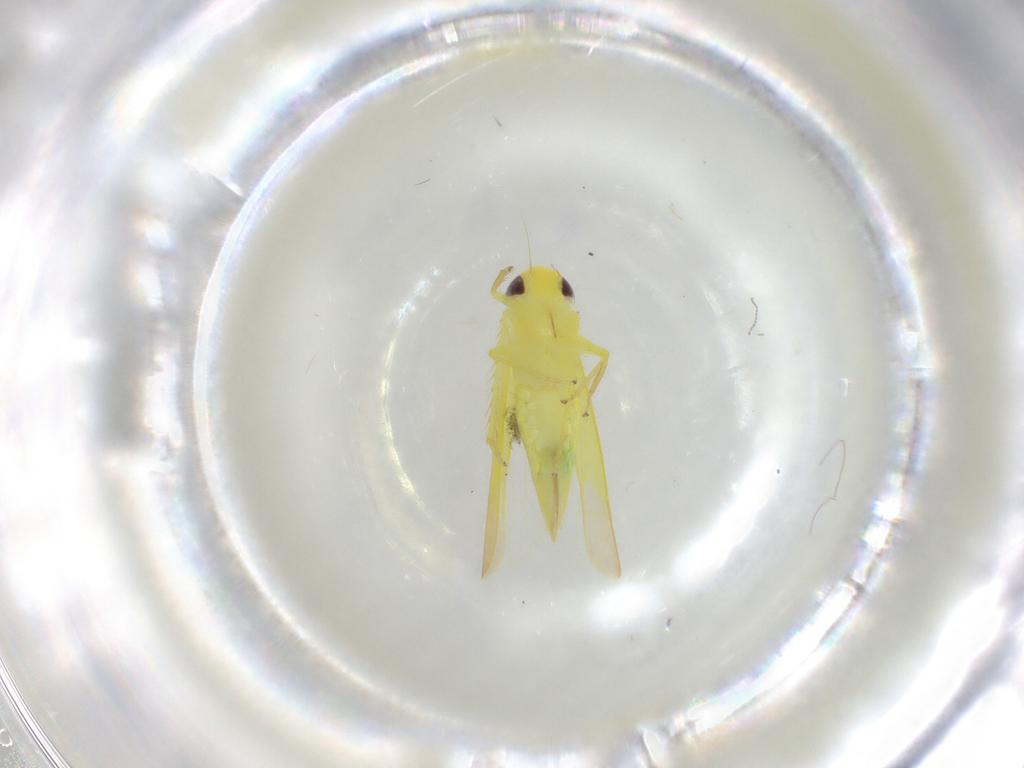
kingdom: Animalia
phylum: Arthropoda
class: Insecta
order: Hemiptera
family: Cicadellidae
